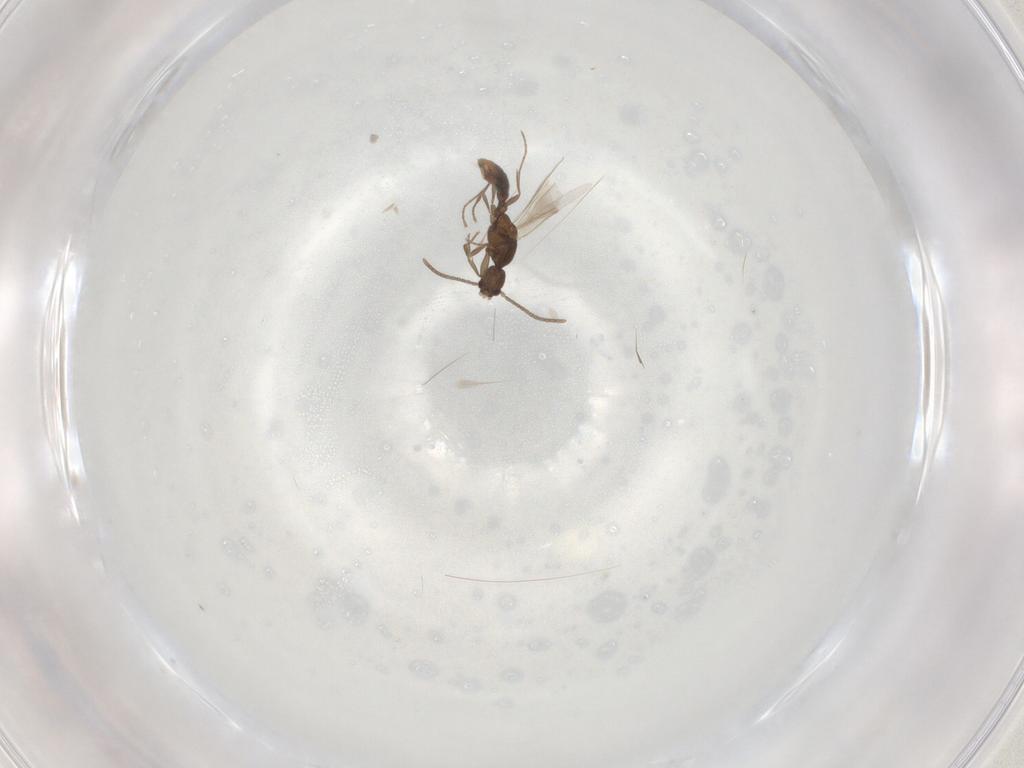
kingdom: Animalia
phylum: Arthropoda
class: Insecta
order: Hymenoptera
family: Formicidae
